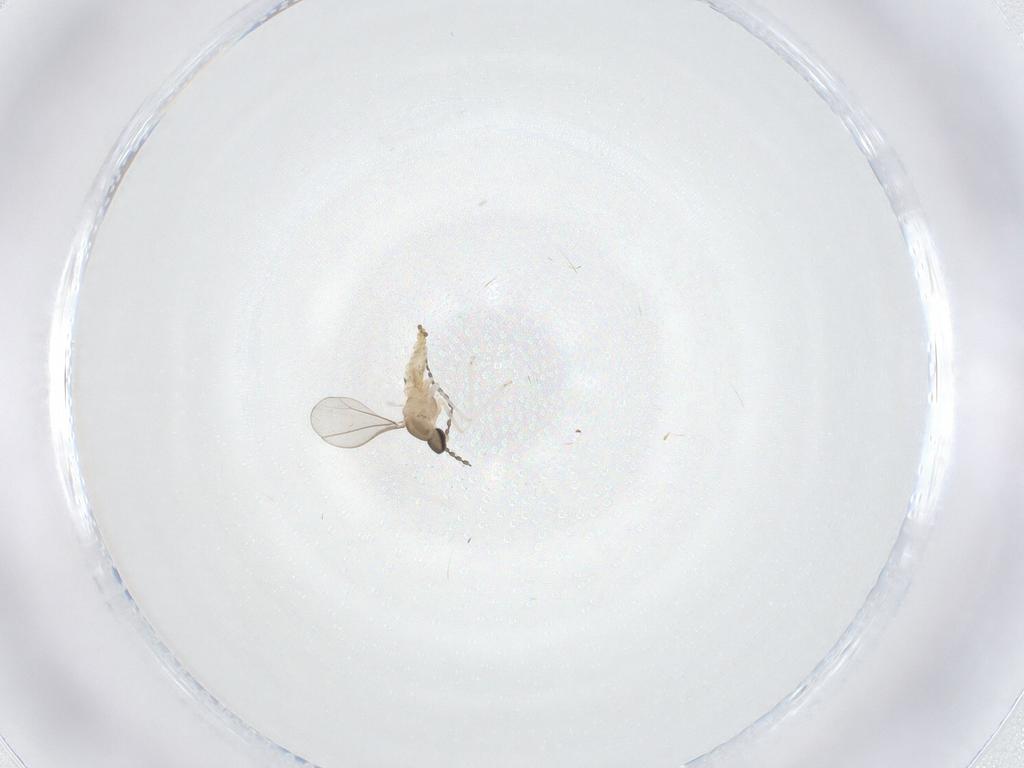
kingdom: Animalia
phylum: Arthropoda
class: Insecta
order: Diptera
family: Cecidomyiidae
